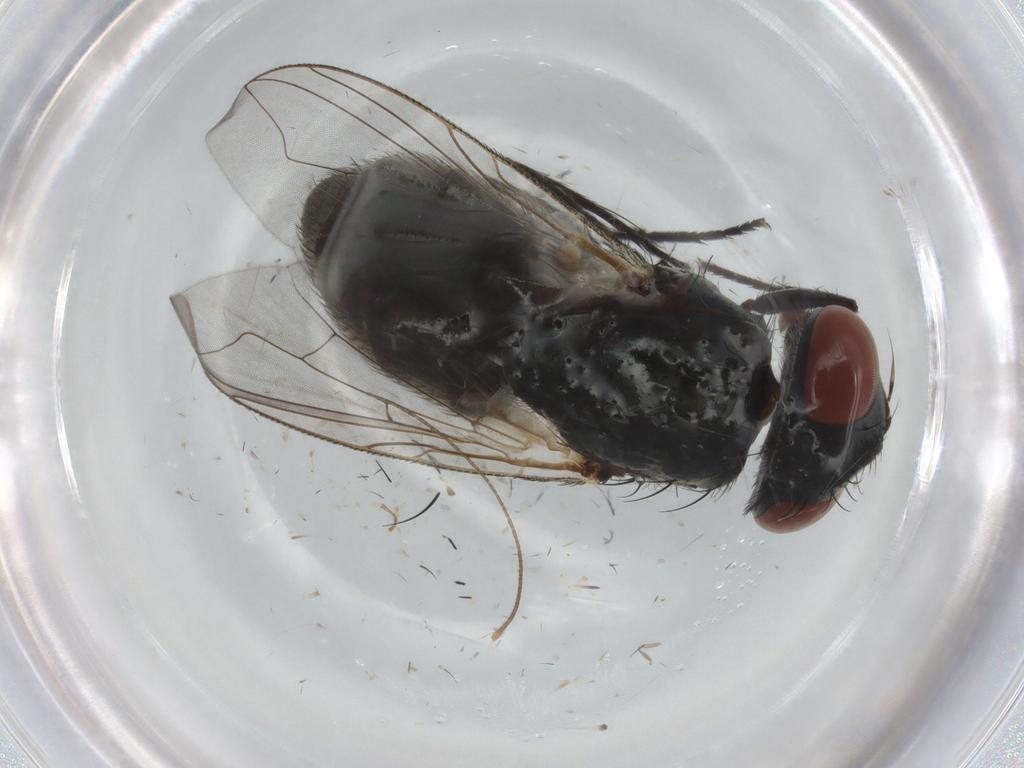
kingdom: Animalia
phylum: Arthropoda
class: Insecta
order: Diptera
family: Sarcophagidae
